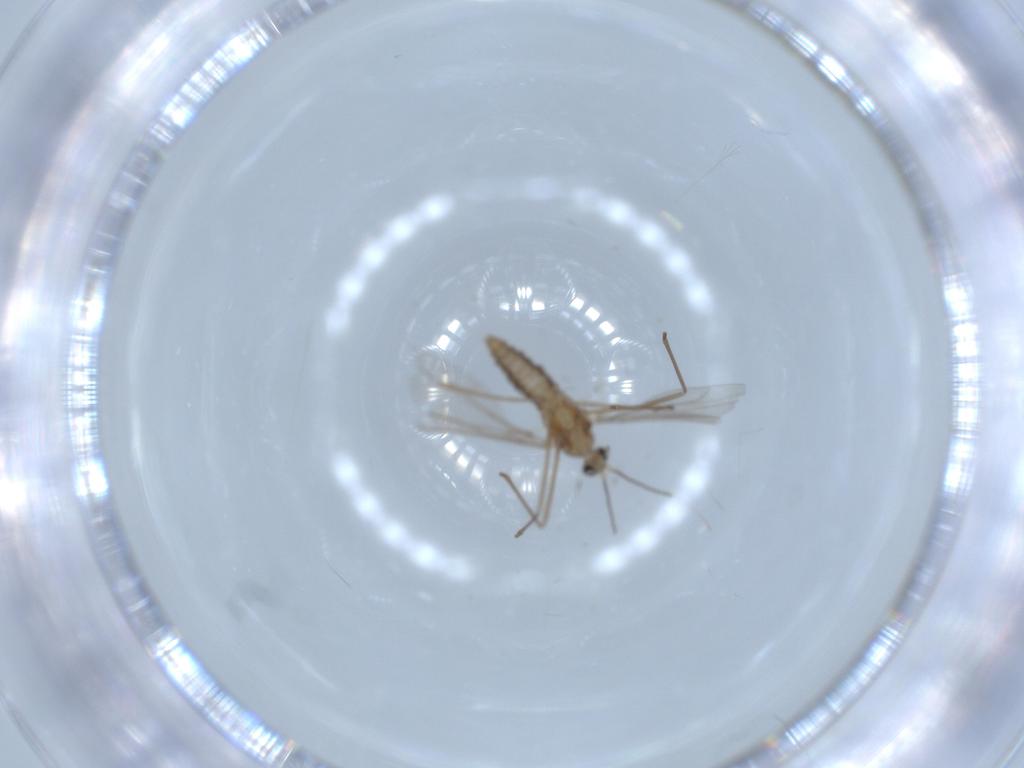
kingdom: Animalia
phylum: Arthropoda
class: Insecta
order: Diptera
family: Cecidomyiidae
